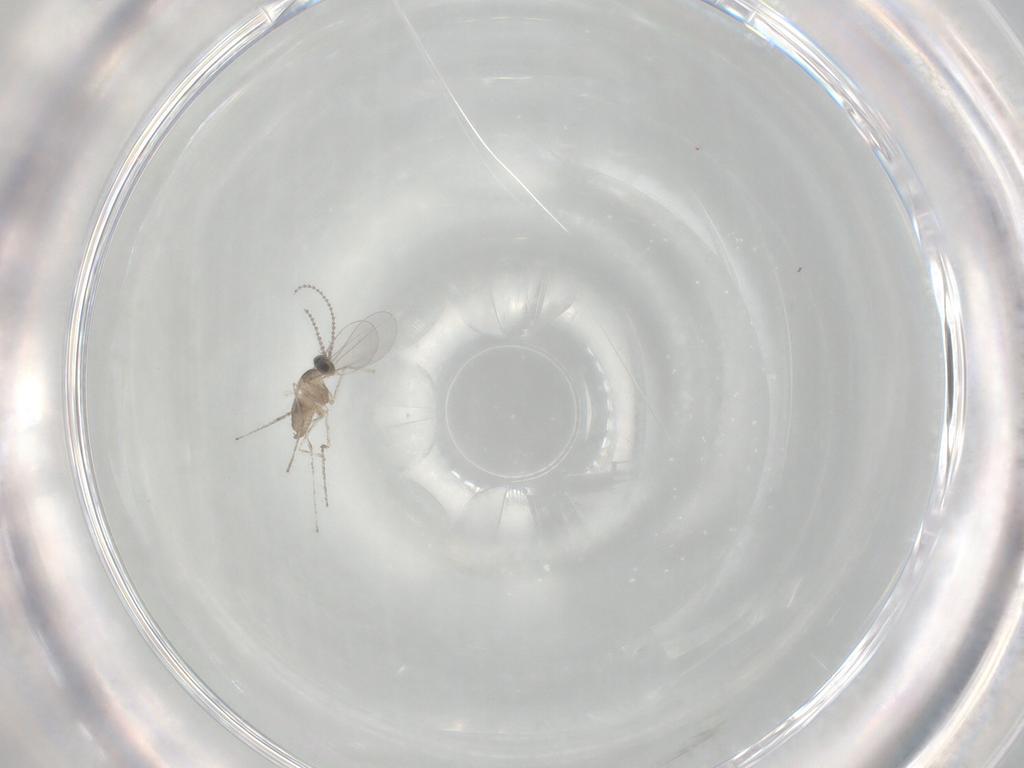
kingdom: Animalia
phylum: Arthropoda
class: Insecta
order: Diptera
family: Cecidomyiidae
